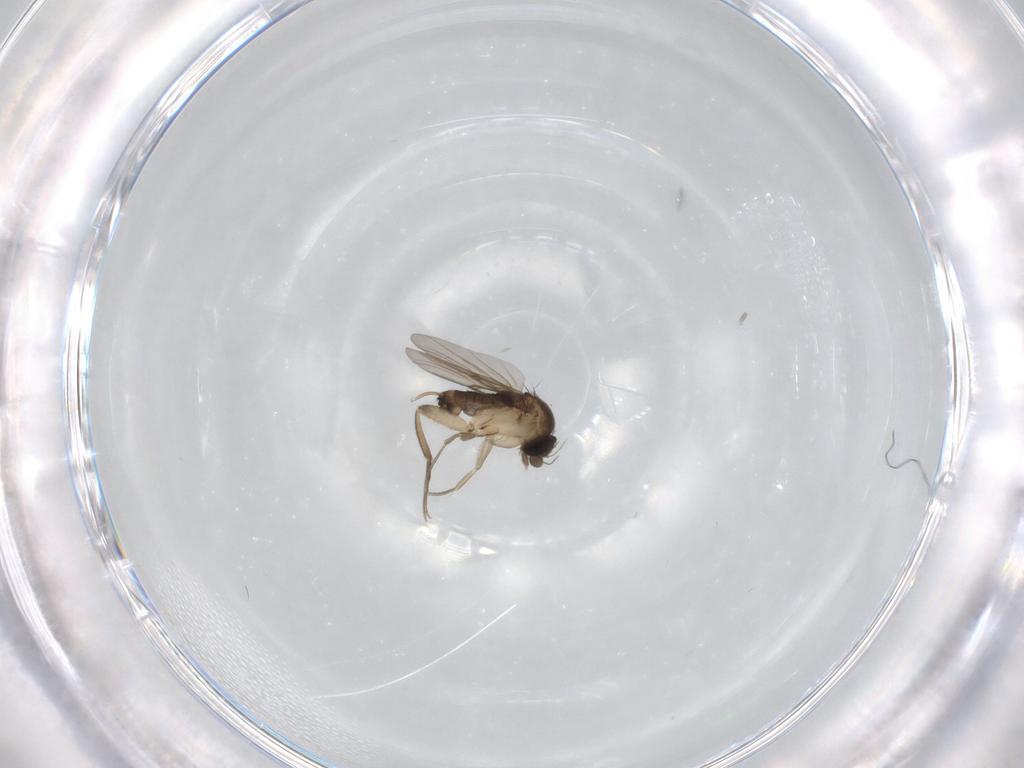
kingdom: Animalia
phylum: Arthropoda
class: Insecta
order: Diptera
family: Phoridae
